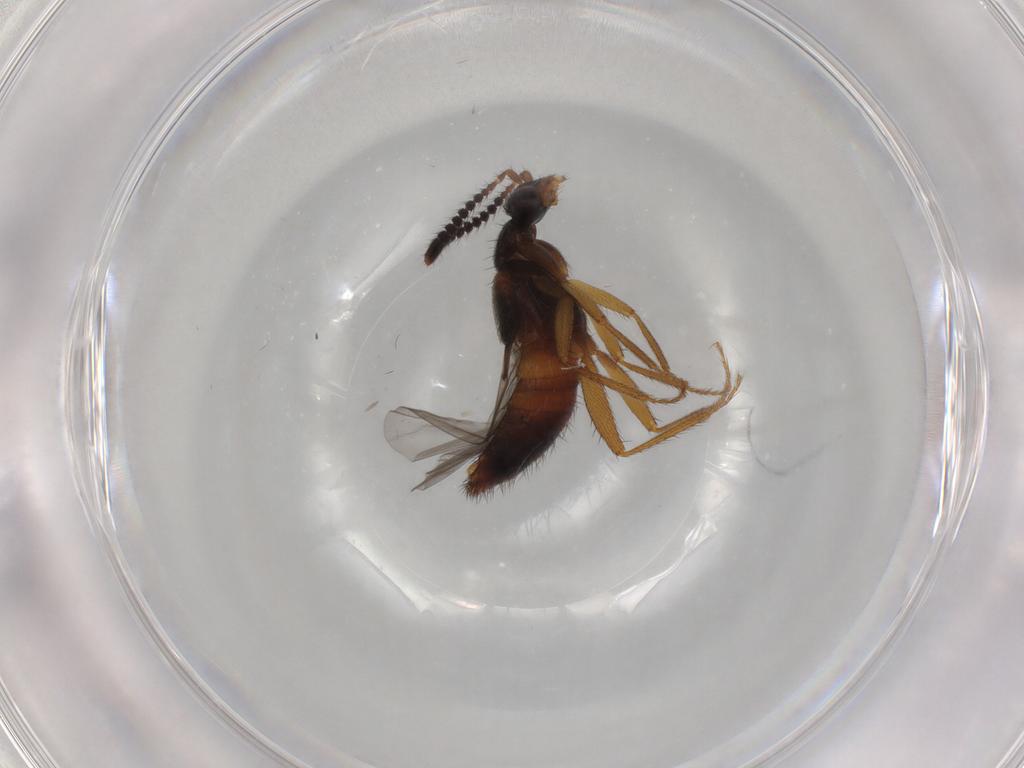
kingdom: Animalia
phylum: Arthropoda
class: Insecta
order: Coleoptera
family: Staphylinidae
